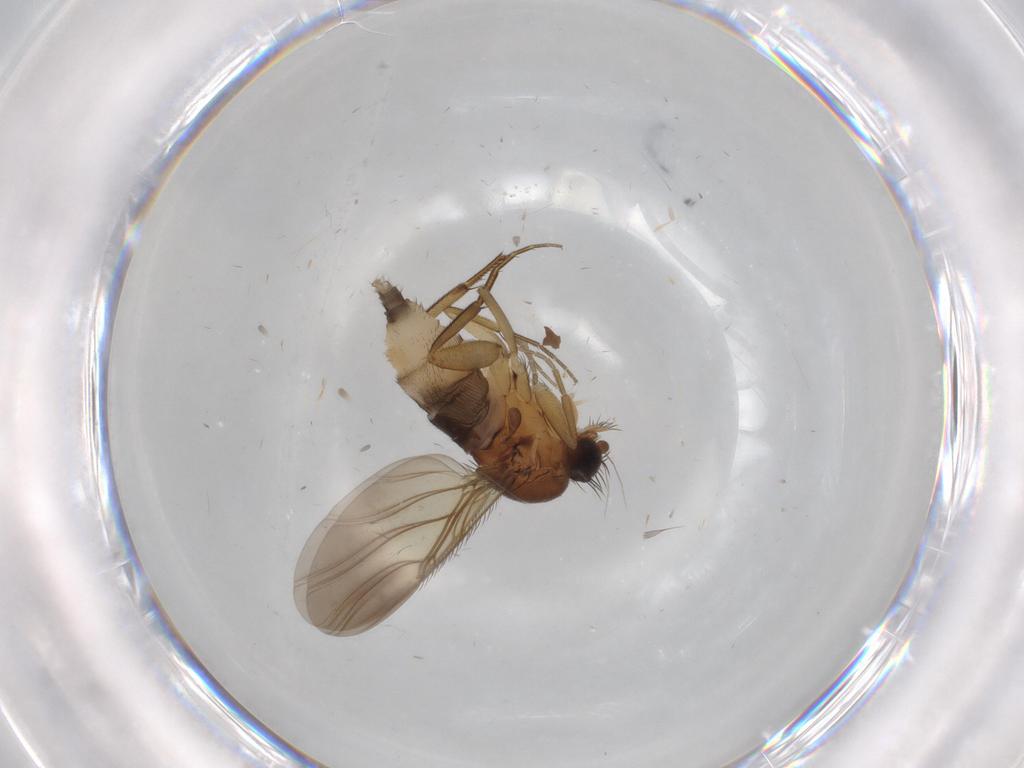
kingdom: Animalia
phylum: Arthropoda
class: Insecta
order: Diptera
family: Phoridae
